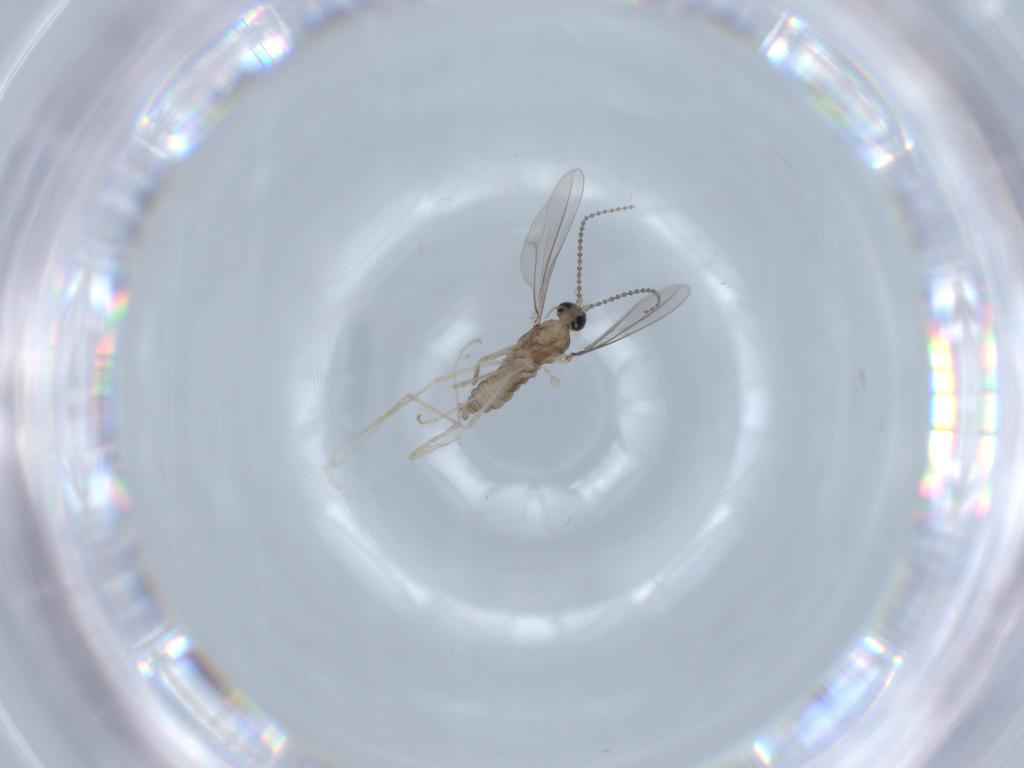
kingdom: Animalia
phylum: Arthropoda
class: Insecta
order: Diptera
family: Cecidomyiidae
